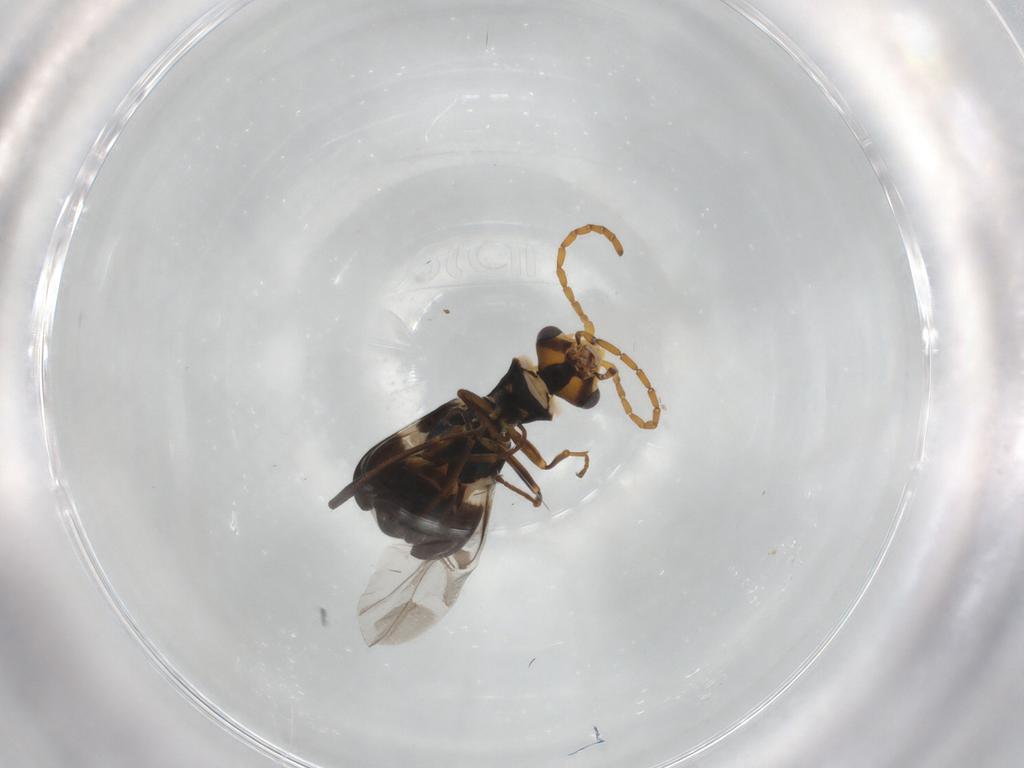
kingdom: Animalia
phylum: Arthropoda
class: Insecta
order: Coleoptera
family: Melyridae
